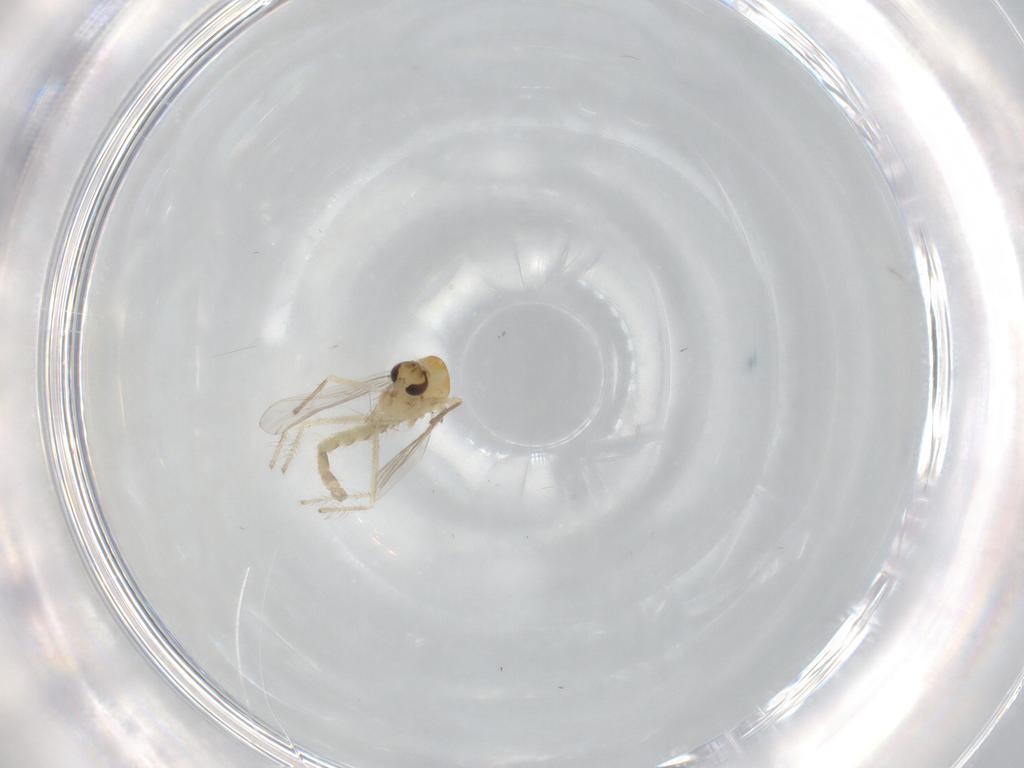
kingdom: Animalia
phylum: Arthropoda
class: Insecta
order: Diptera
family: Chironomidae
